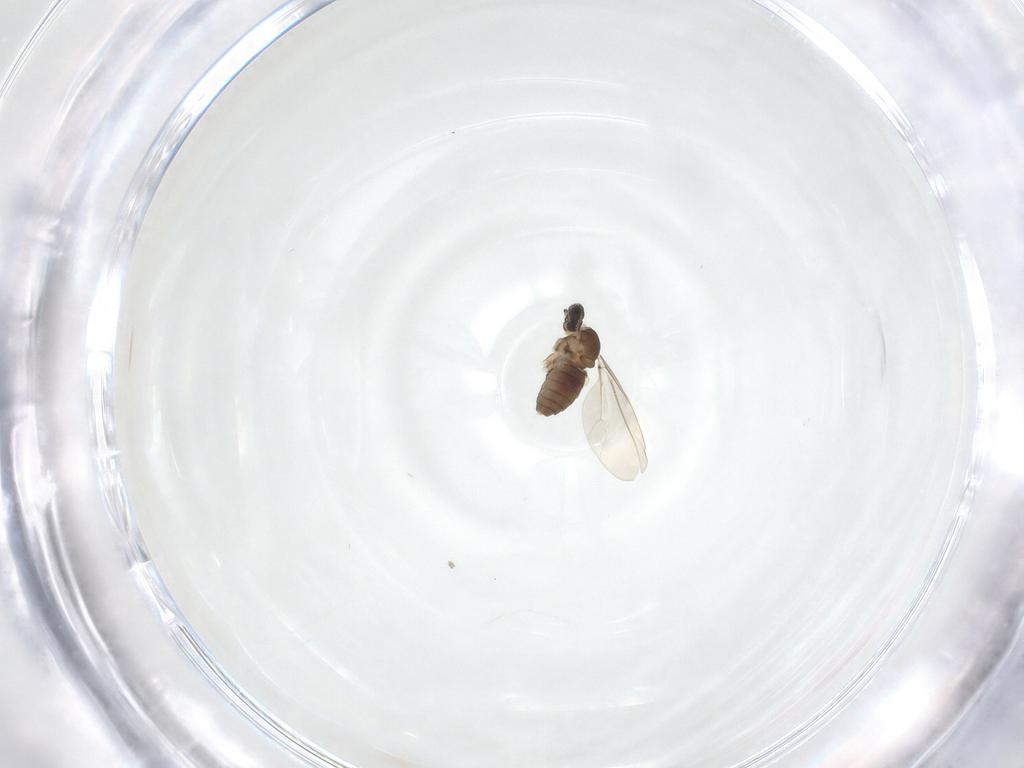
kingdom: Animalia
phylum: Arthropoda
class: Insecta
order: Diptera
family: Cecidomyiidae
